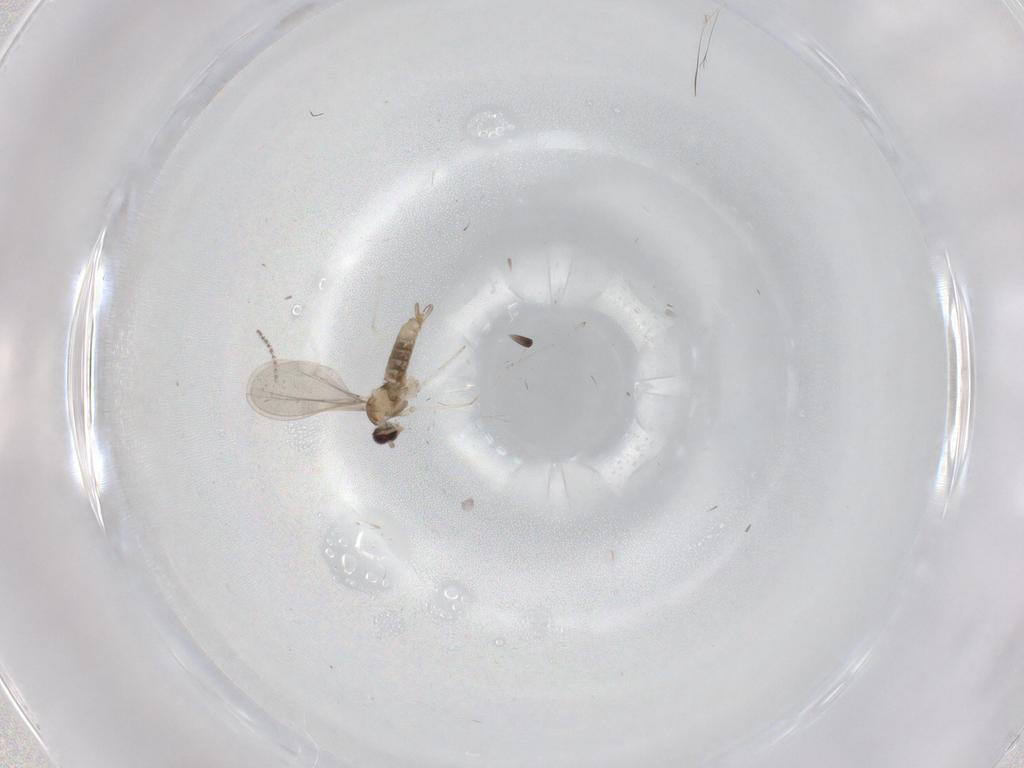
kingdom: Animalia
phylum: Arthropoda
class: Insecta
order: Diptera
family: Cecidomyiidae
